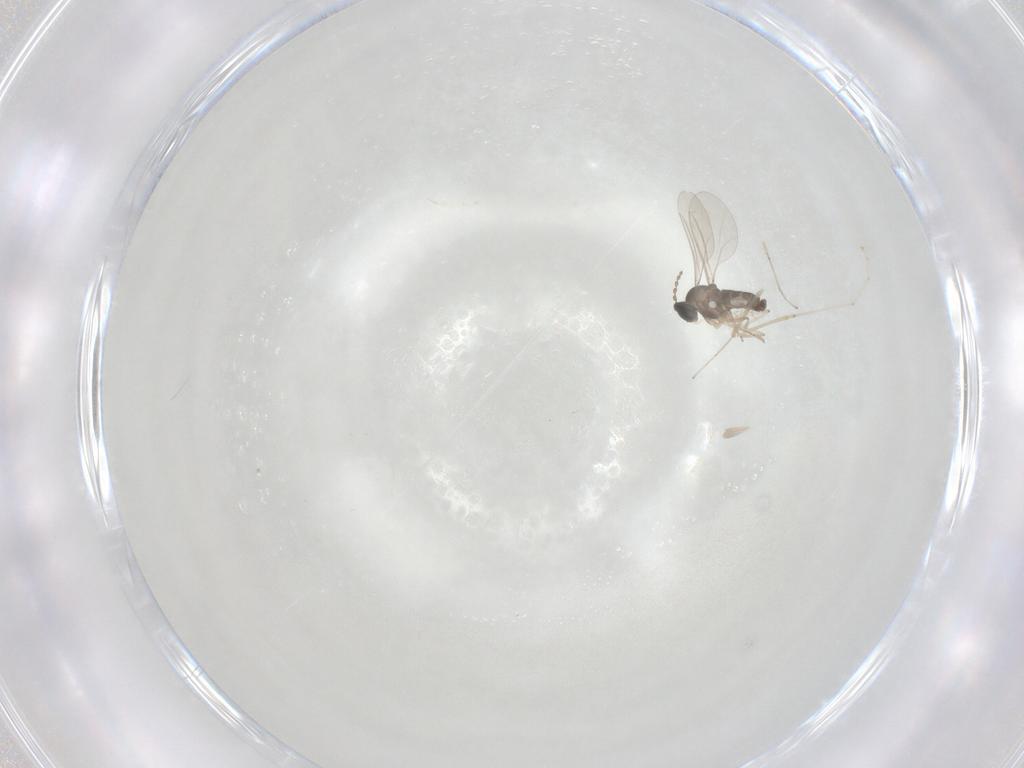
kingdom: Animalia
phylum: Arthropoda
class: Insecta
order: Diptera
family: Cecidomyiidae
